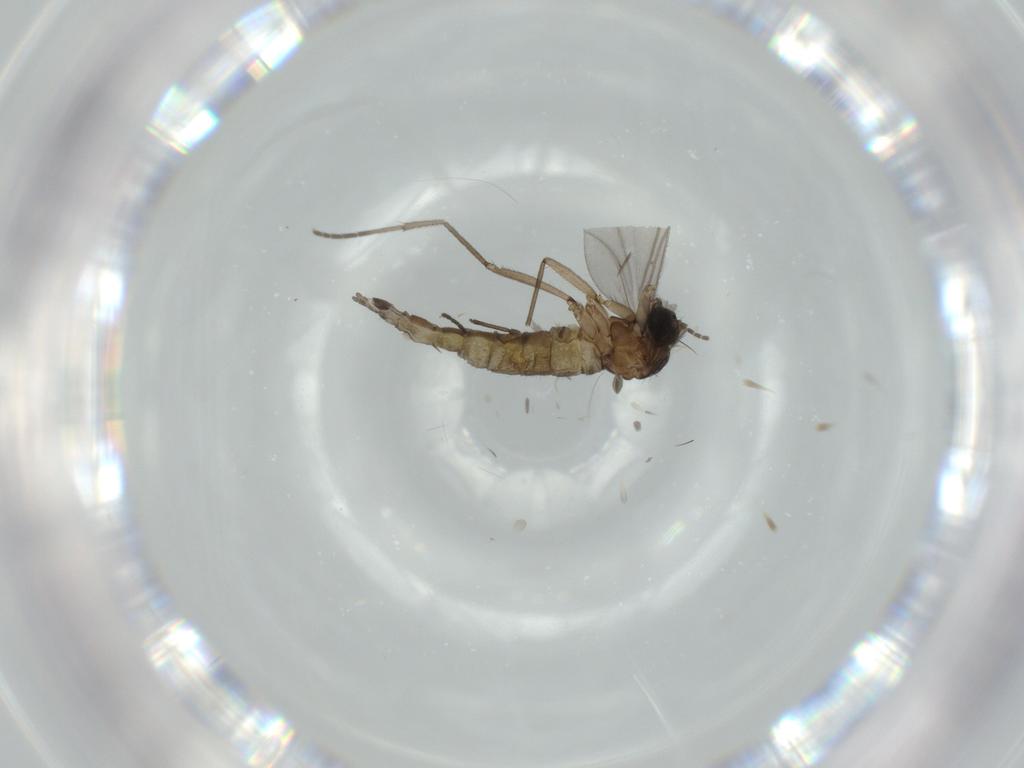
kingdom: Animalia
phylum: Arthropoda
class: Insecta
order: Diptera
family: Sciaridae
